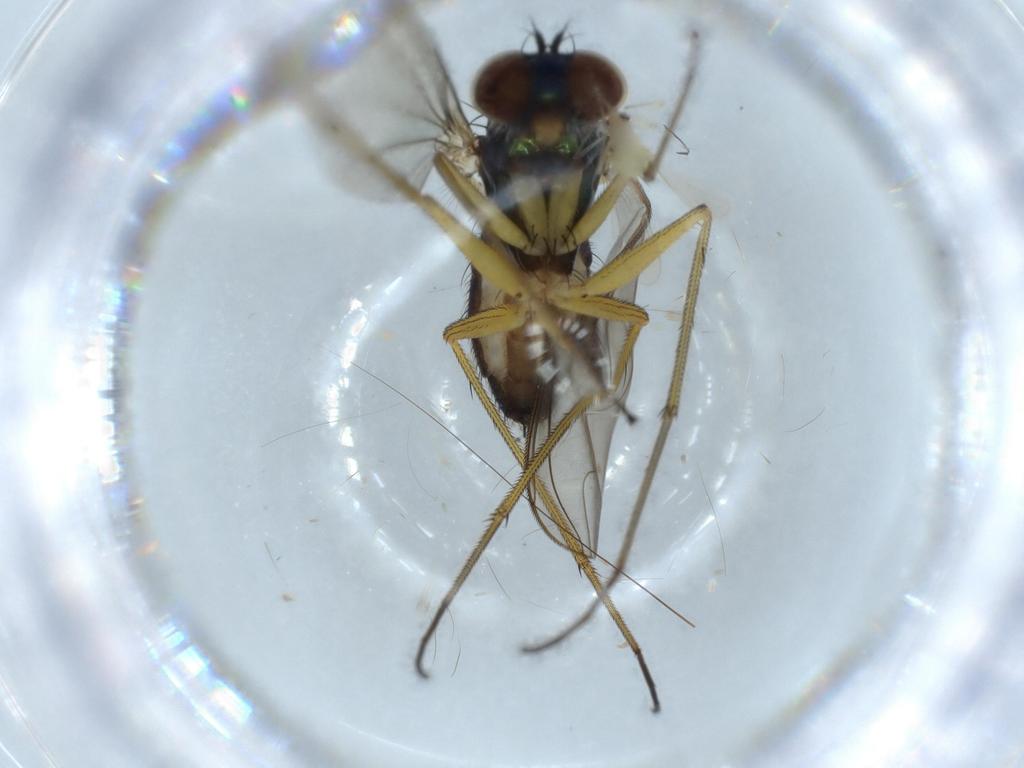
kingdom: Animalia
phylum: Arthropoda
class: Insecta
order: Diptera
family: Dolichopodidae
